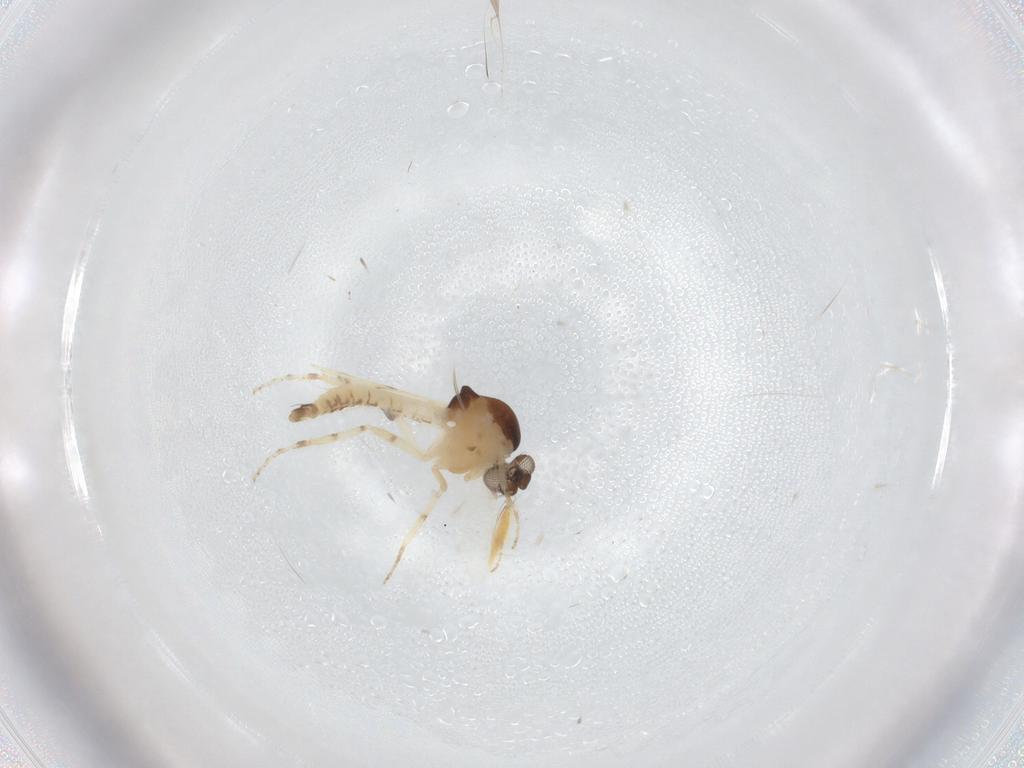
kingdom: Animalia
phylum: Arthropoda
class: Insecta
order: Diptera
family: Ceratopogonidae
